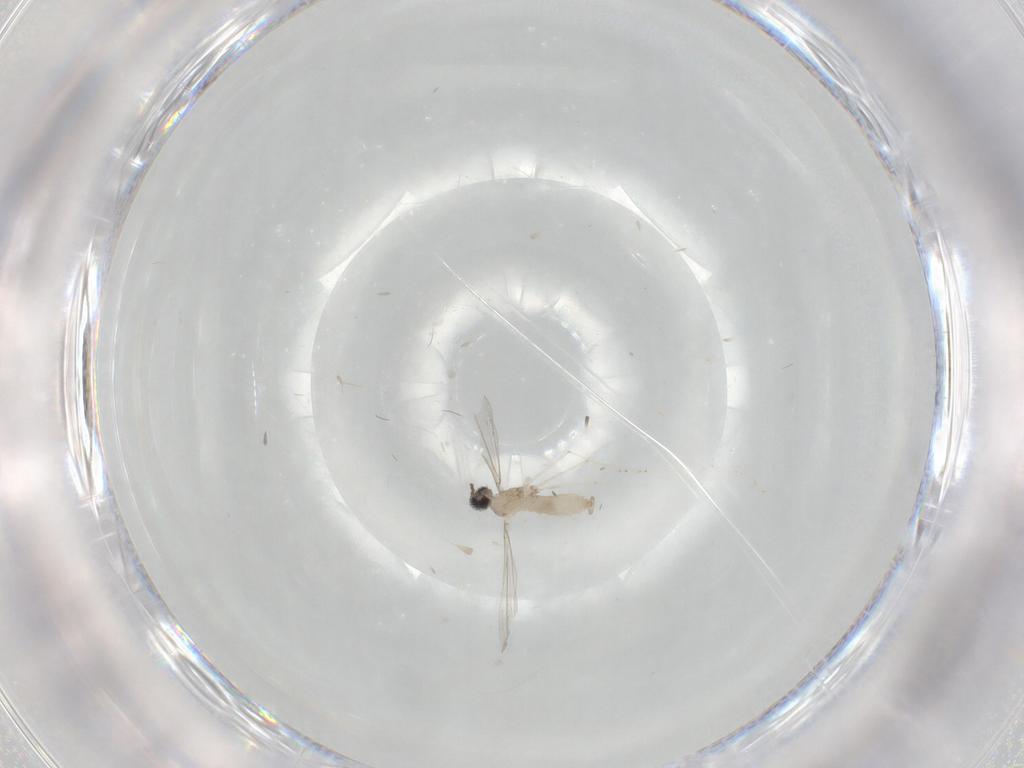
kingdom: Animalia
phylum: Arthropoda
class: Insecta
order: Diptera
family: Cecidomyiidae
